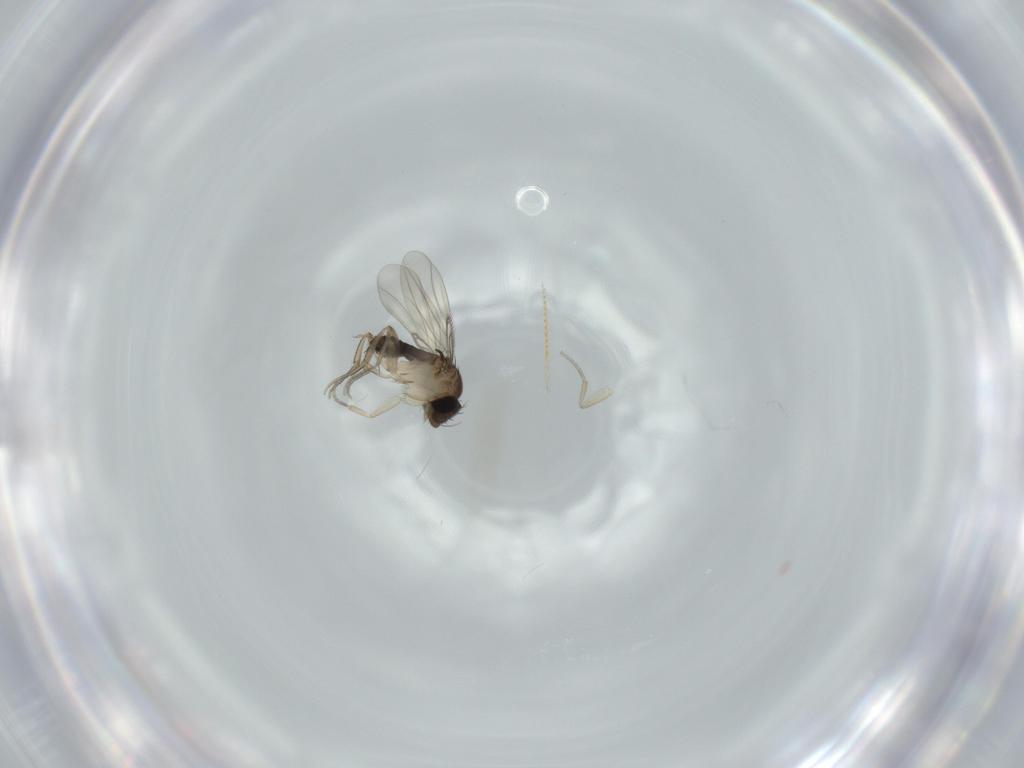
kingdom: Animalia
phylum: Arthropoda
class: Insecta
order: Diptera
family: Phoridae
